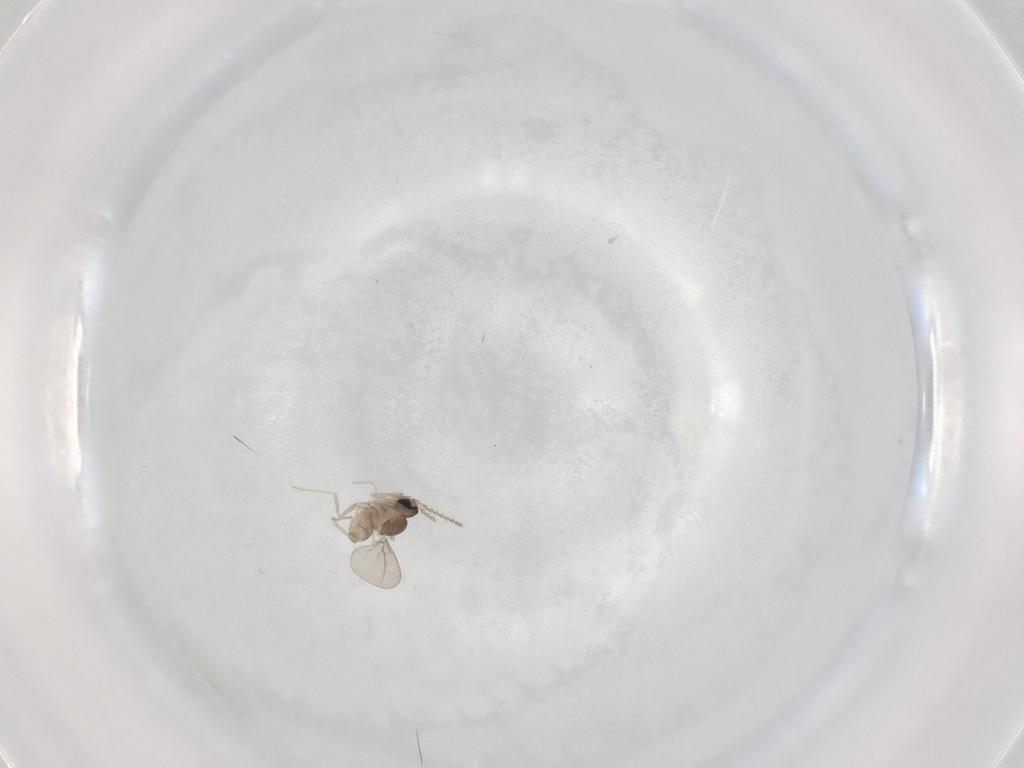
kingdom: Animalia
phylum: Arthropoda
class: Insecta
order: Diptera
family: Cecidomyiidae
